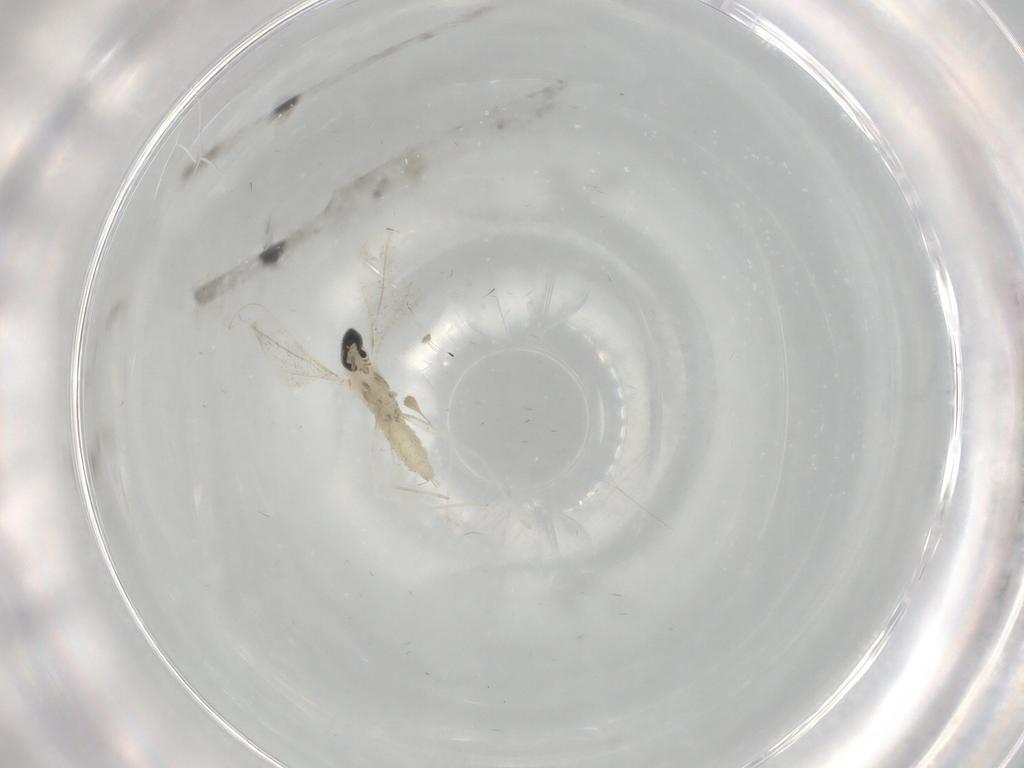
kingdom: Animalia
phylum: Arthropoda
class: Insecta
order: Diptera
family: Cecidomyiidae
